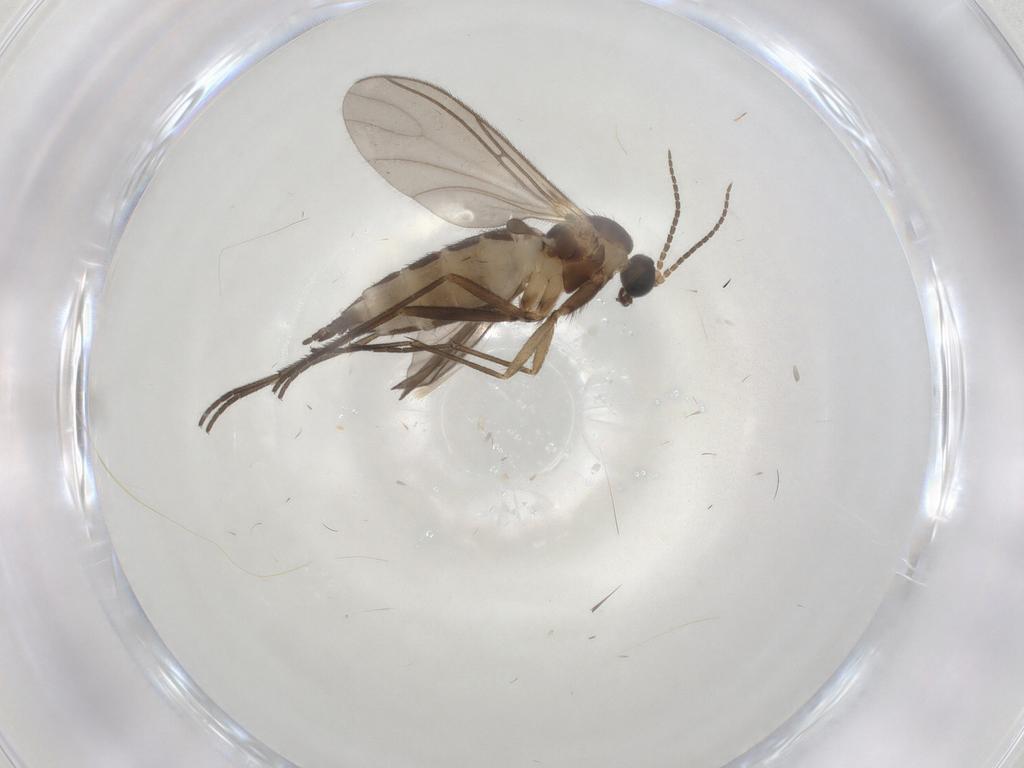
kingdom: Animalia
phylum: Arthropoda
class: Insecta
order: Diptera
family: Sciaridae
